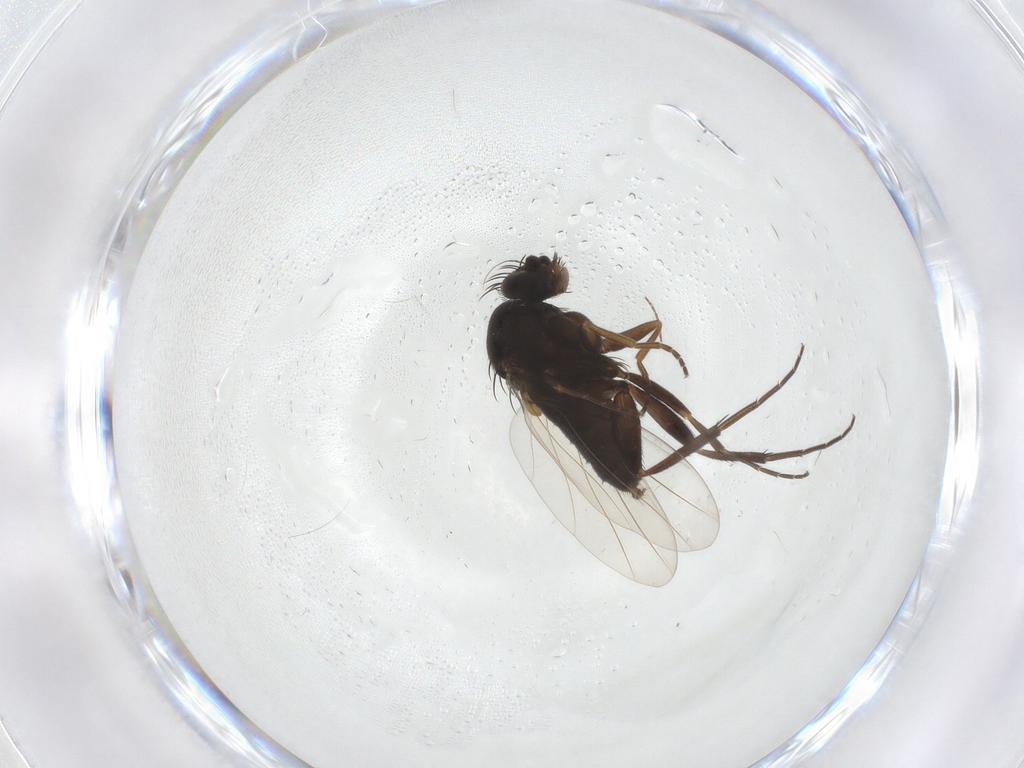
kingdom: Animalia
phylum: Arthropoda
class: Insecta
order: Diptera
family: Phoridae
